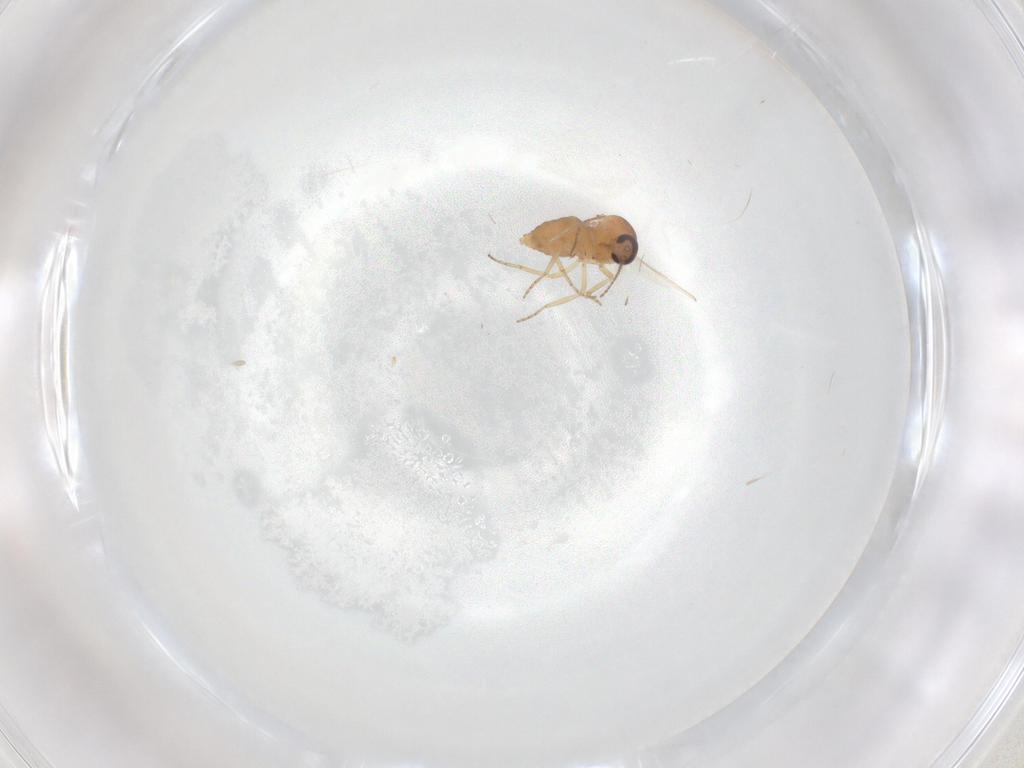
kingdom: Animalia
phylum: Arthropoda
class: Insecta
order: Diptera
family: Ceratopogonidae
